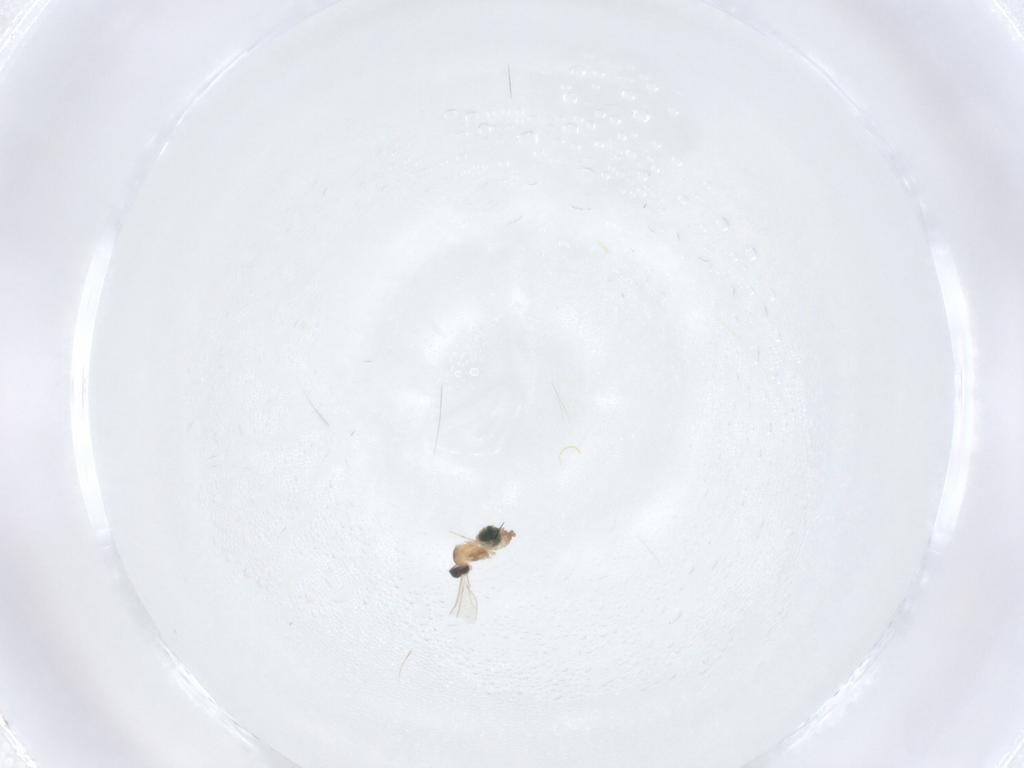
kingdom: Animalia
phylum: Arthropoda
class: Insecta
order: Diptera
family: Cecidomyiidae
